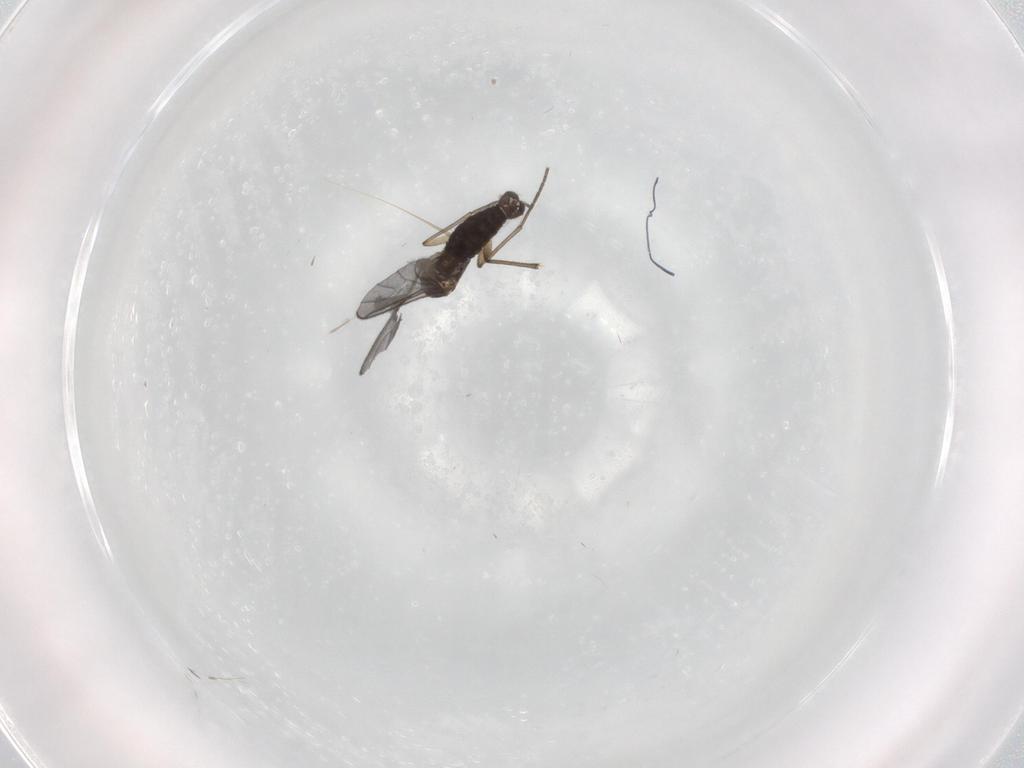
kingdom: Animalia
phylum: Arthropoda
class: Insecta
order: Diptera
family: Sciaridae
